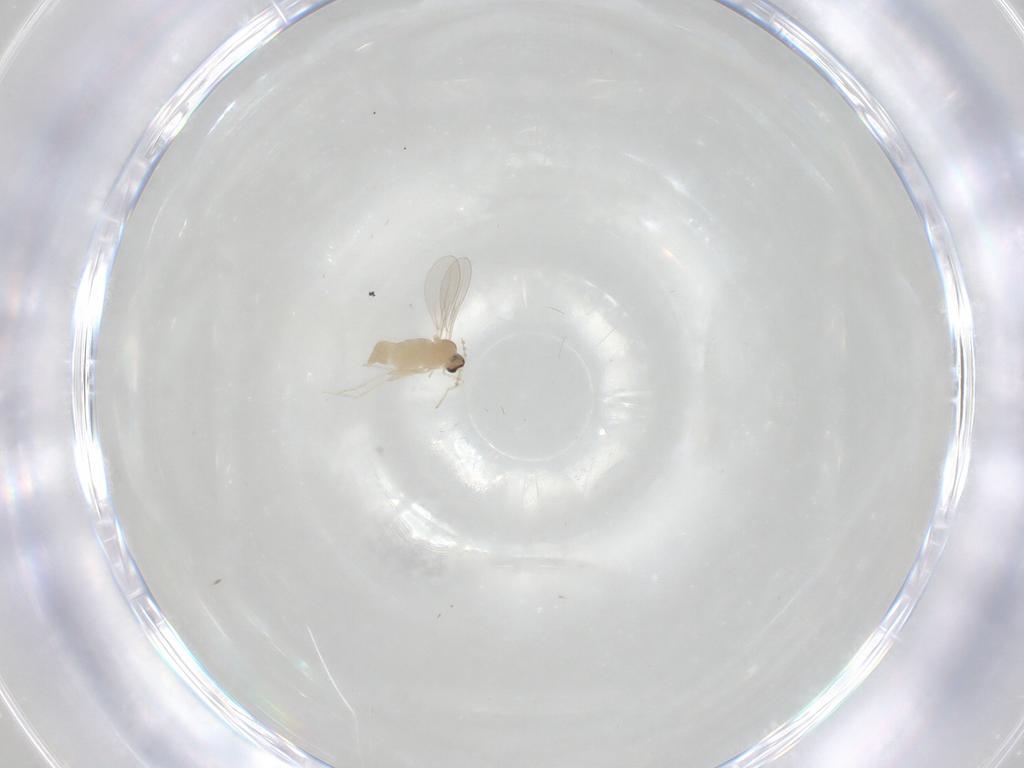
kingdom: Animalia
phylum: Arthropoda
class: Insecta
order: Diptera
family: Cecidomyiidae
